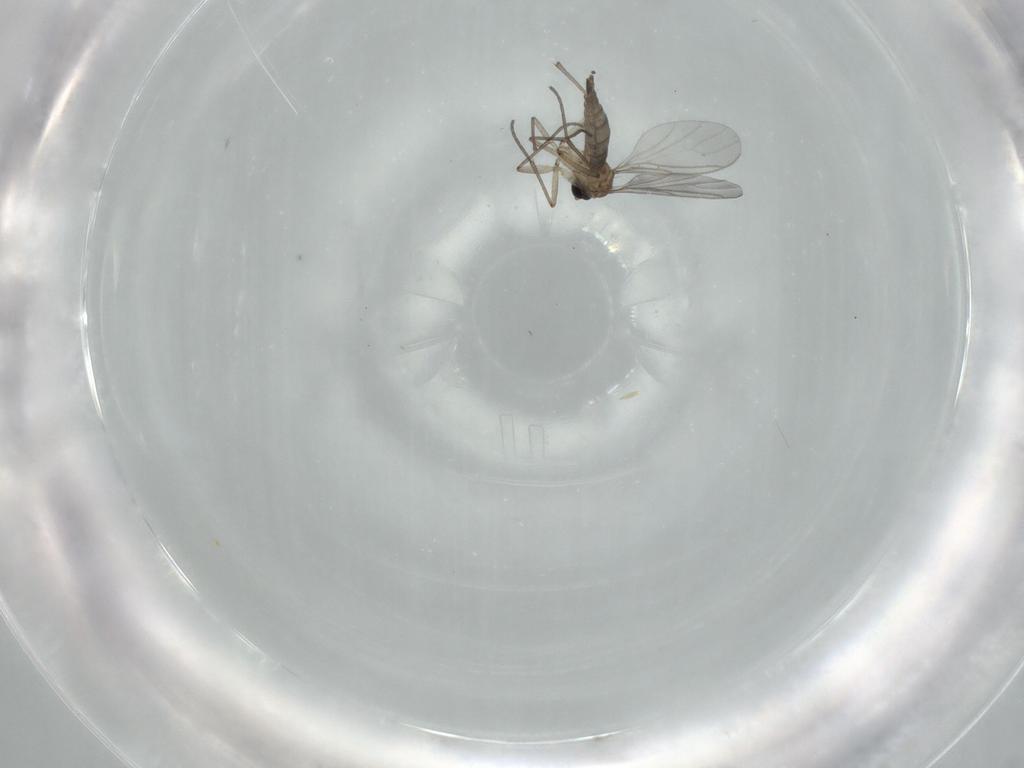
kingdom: Animalia
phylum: Arthropoda
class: Insecta
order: Diptera
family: Sciaridae
